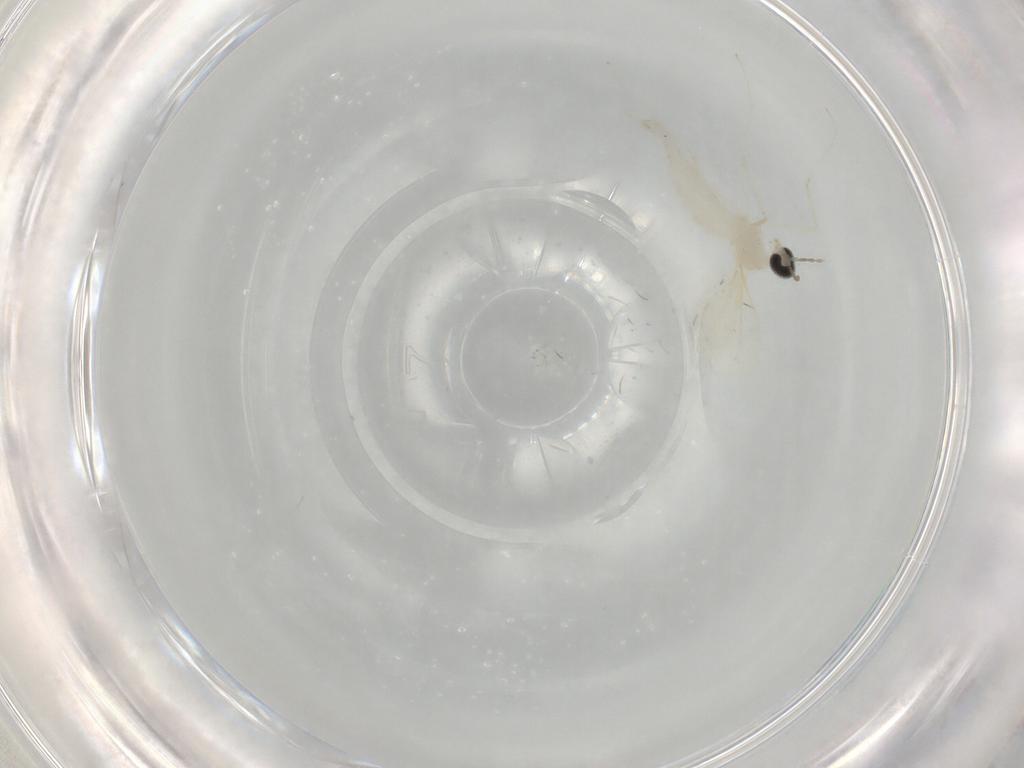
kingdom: Animalia
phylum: Arthropoda
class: Insecta
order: Diptera
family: Cecidomyiidae
